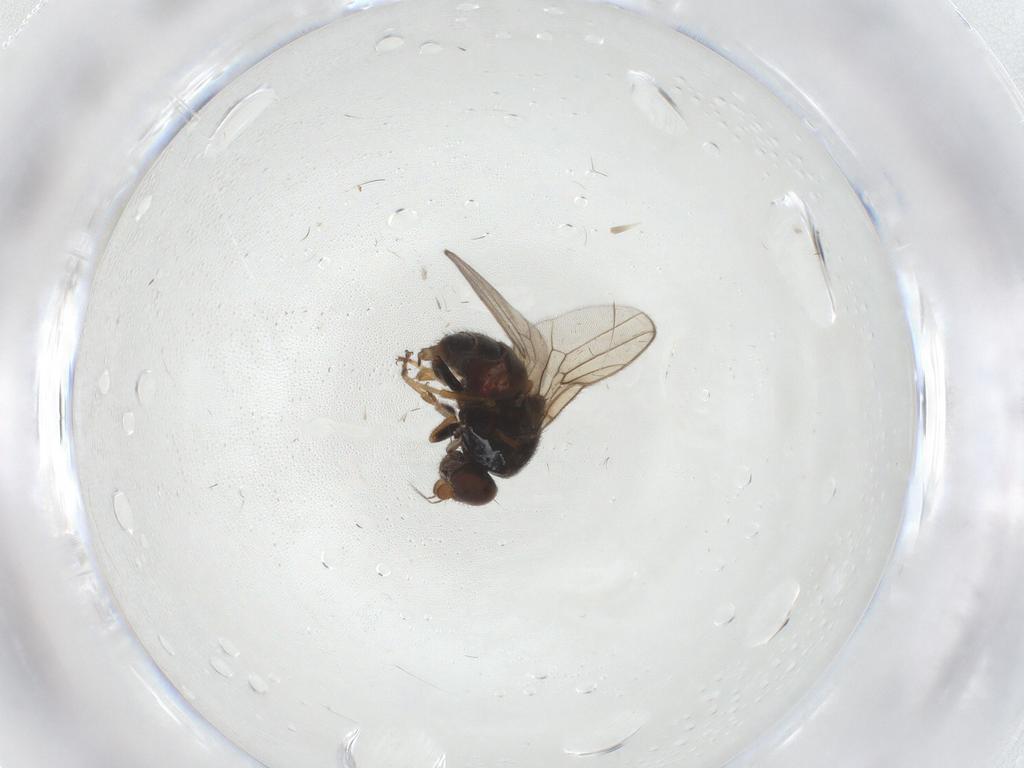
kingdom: Animalia
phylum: Arthropoda
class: Insecta
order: Diptera
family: Chloropidae
